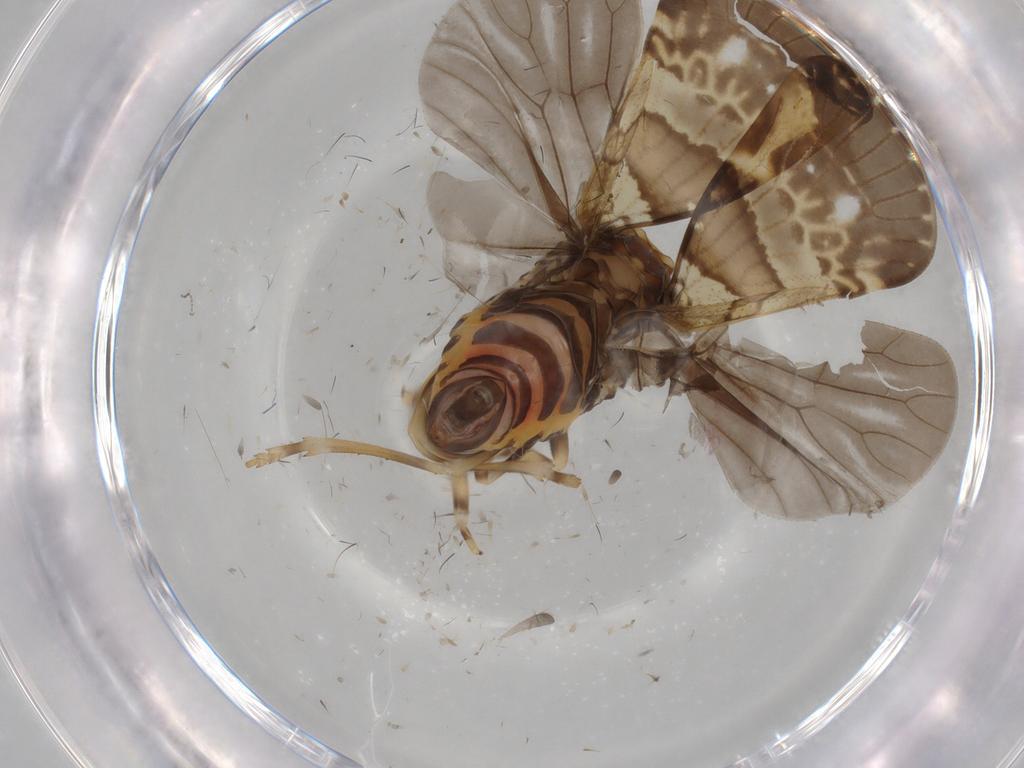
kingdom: Animalia
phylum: Arthropoda
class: Insecta
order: Hemiptera
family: Cixiidae
